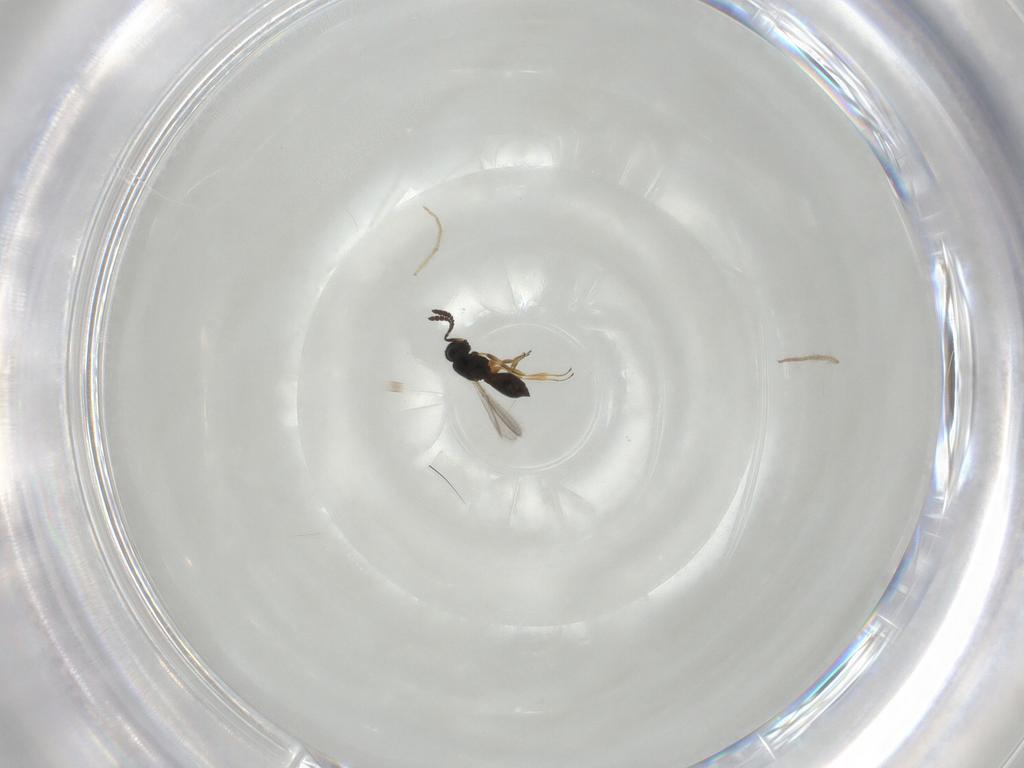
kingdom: Animalia
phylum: Arthropoda
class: Insecta
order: Hymenoptera
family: Scelionidae
